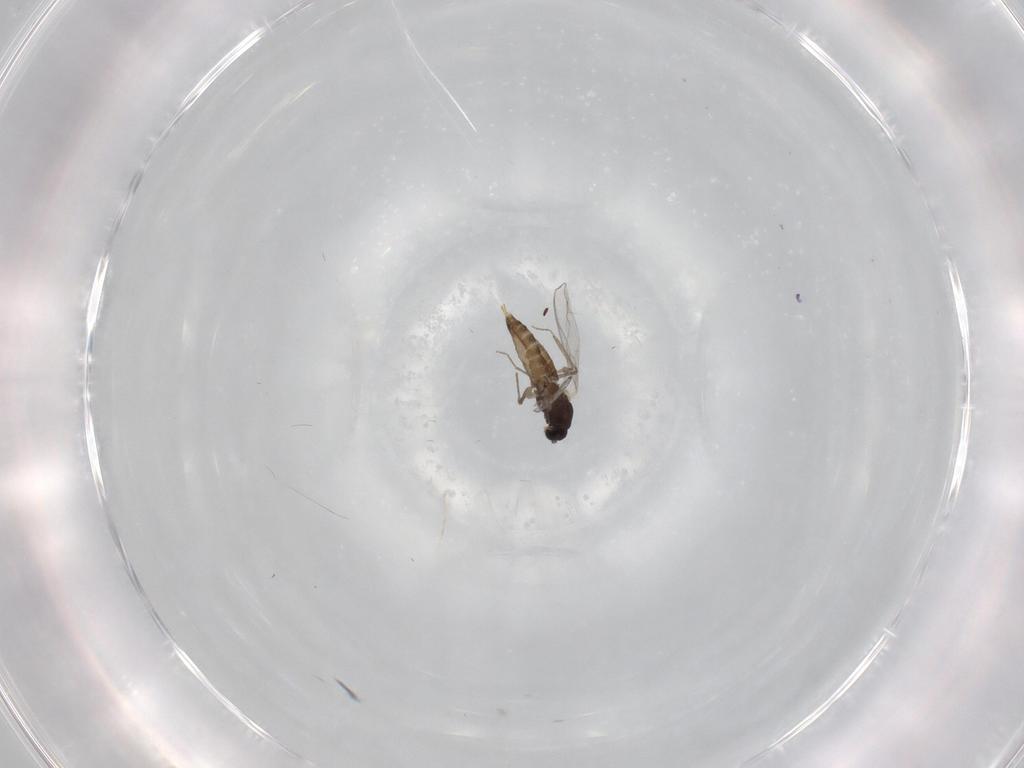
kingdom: Animalia
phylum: Arthropoda
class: Insecta
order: Diptera
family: Chironomidae
